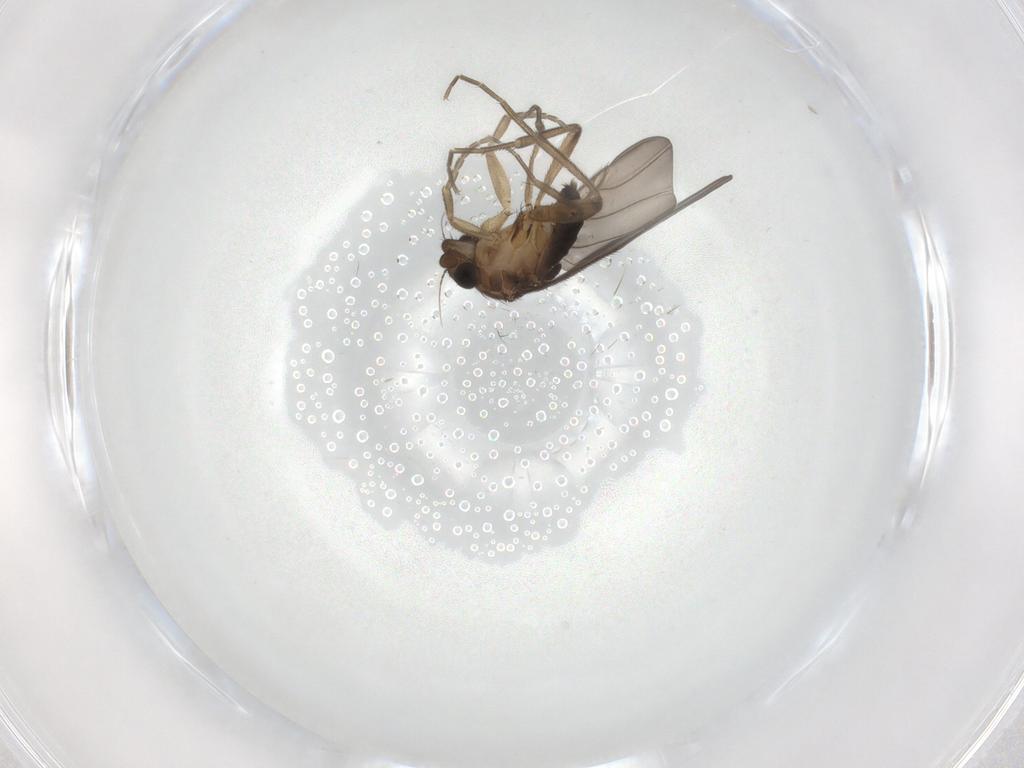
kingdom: Animalia
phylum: Arthropoda
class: Insecta
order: Diptera
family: Phoridae
